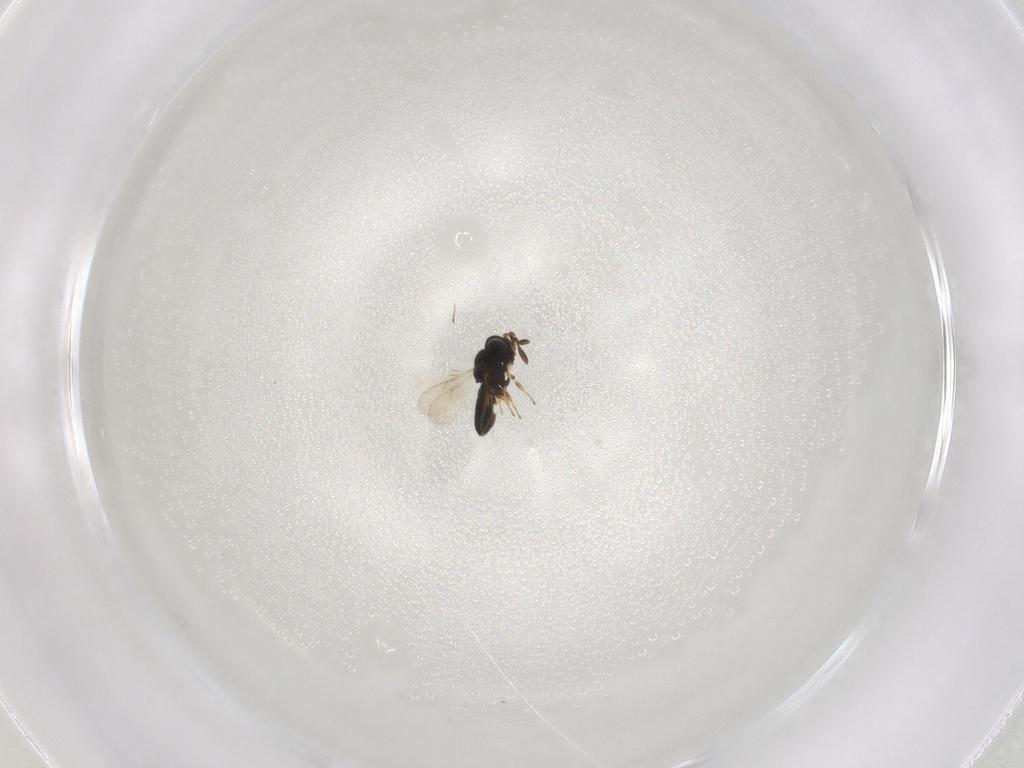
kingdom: Animalia
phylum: Arthropoda
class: Insecta
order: Hymenoptera
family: Scelionidae
